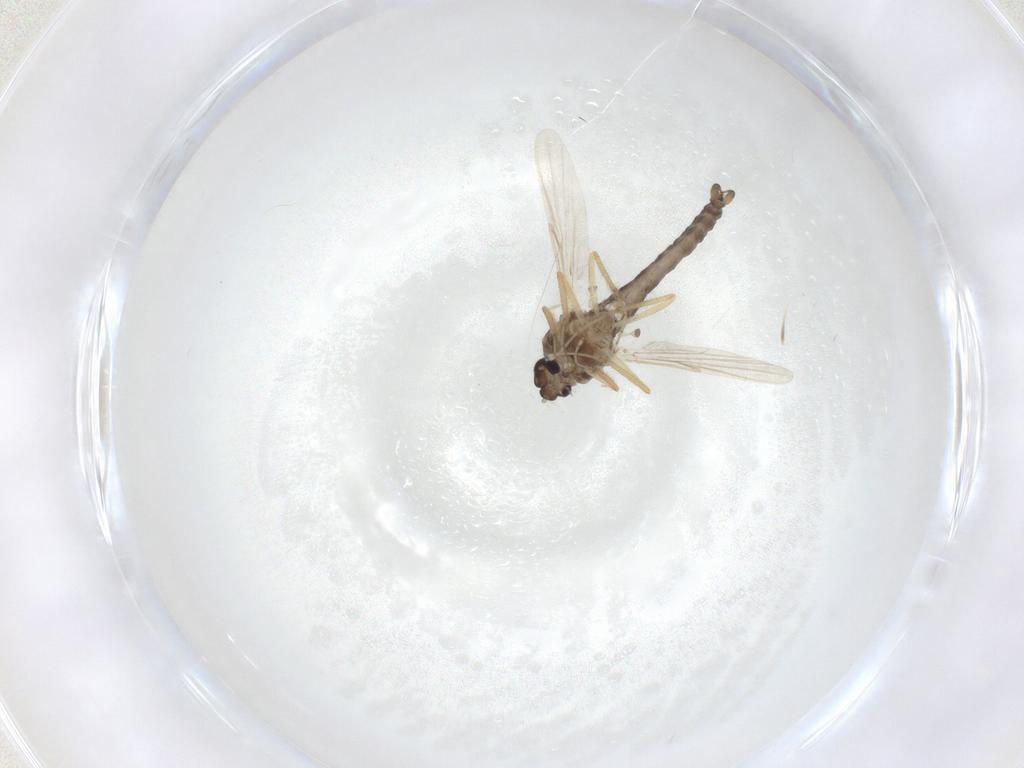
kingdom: Animalia
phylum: Arthropoda
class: Insecta
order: Diptera
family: Ceratopogonidae
